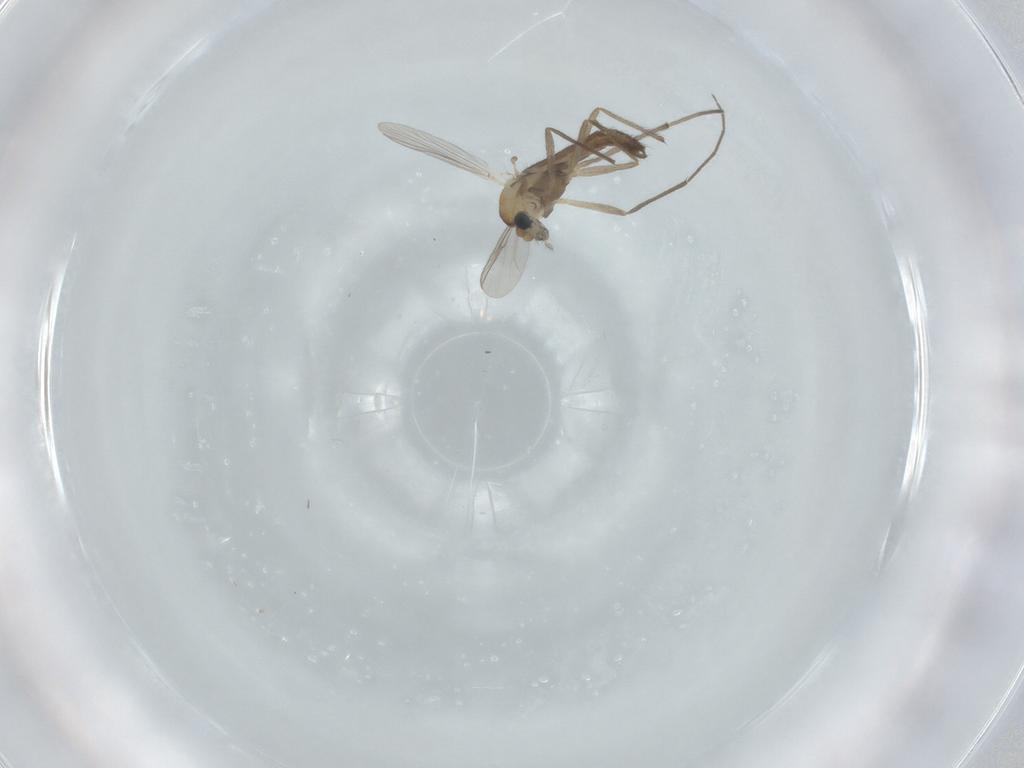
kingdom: Animalia
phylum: Arthropoda
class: Insecta
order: Diptera
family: Chironomidae
